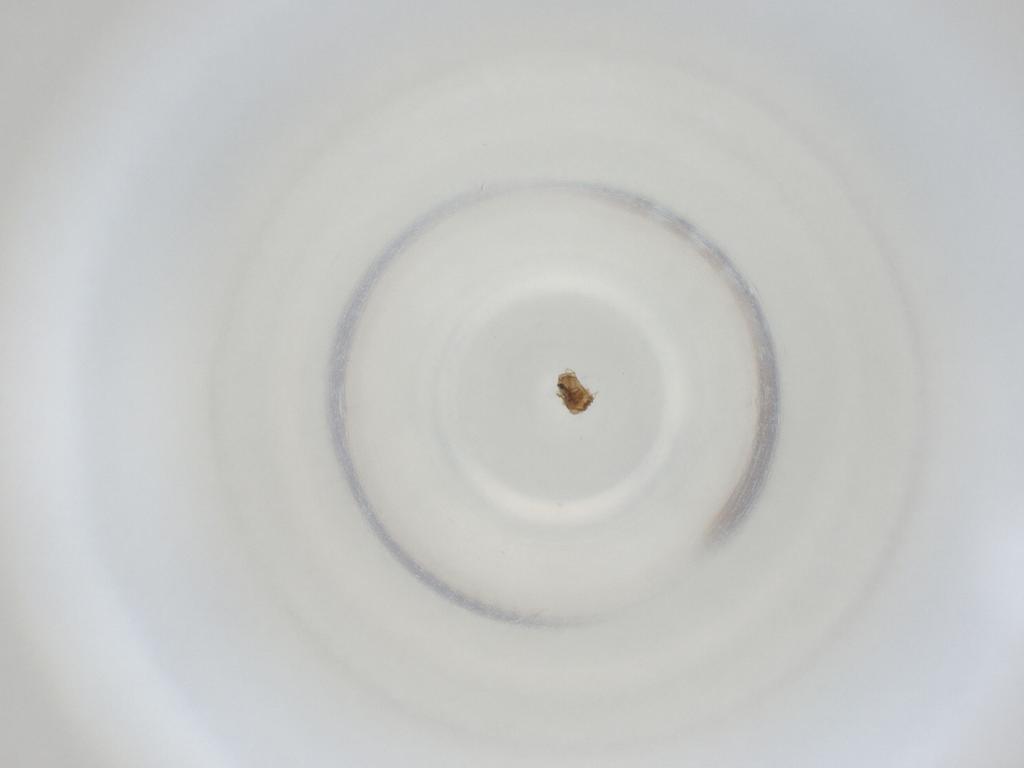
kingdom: Animalia
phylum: Arthropoda
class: Insecta
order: Diptera
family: Cecidomyiidae
